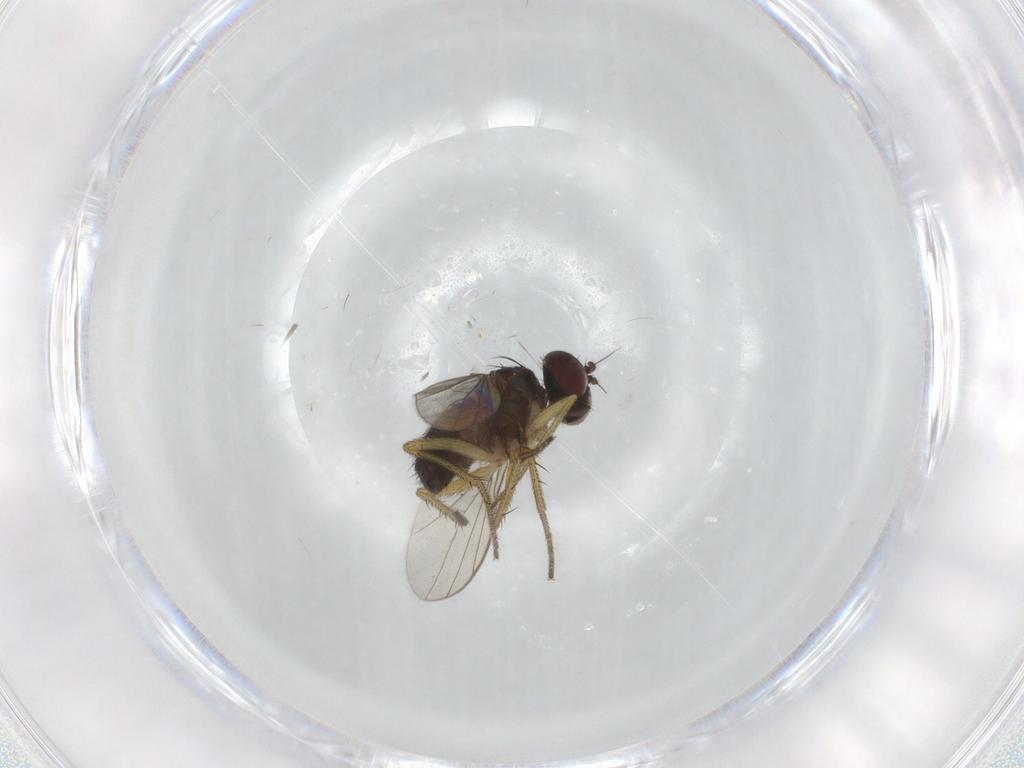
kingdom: Animalia
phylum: Arthropoda
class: Insecta
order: Diptera
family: Dolichopodidae
